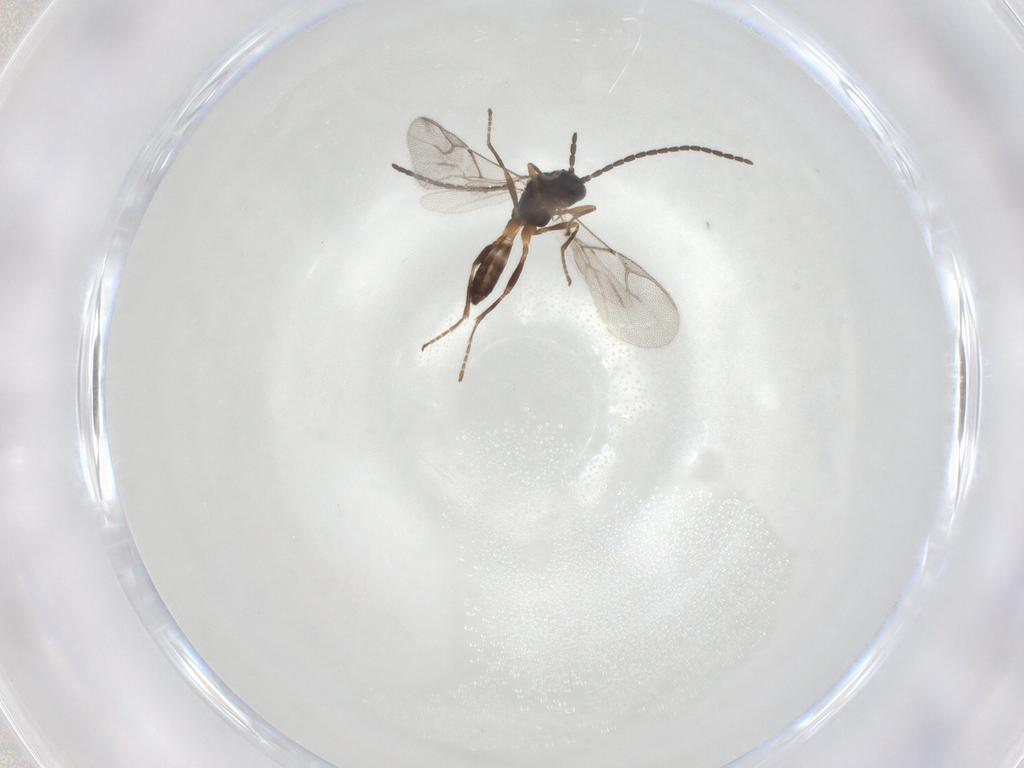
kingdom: Animalia
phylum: Arthropoda
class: Insecta
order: Hymenoptera
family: Braconidae
